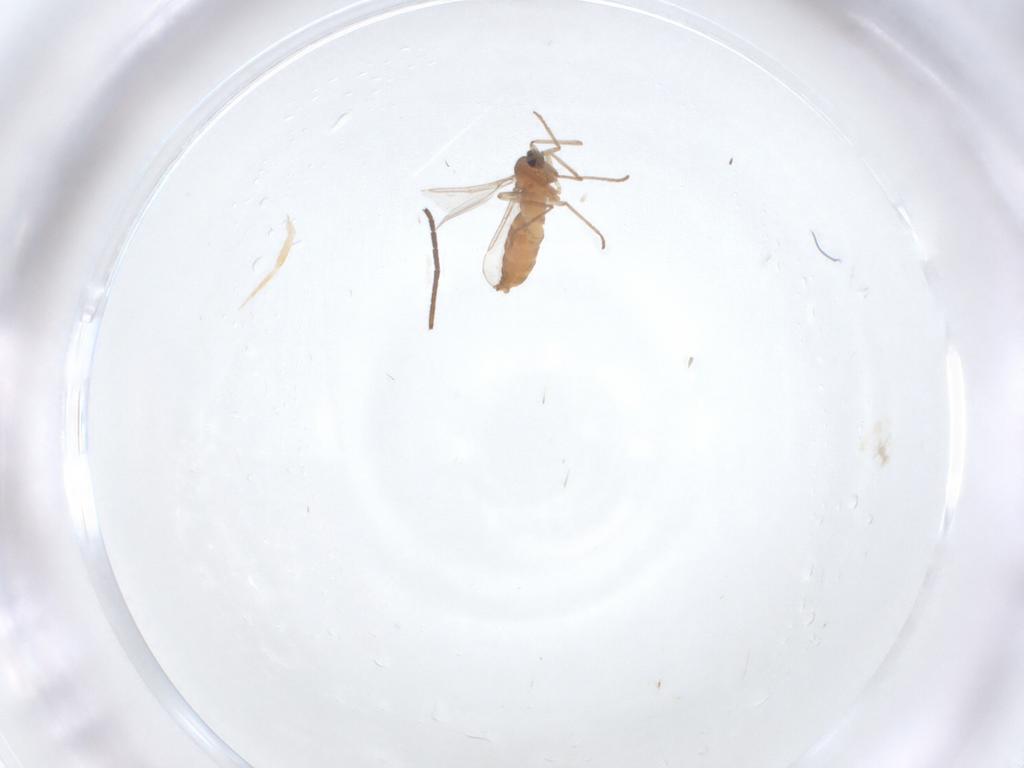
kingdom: Animalia
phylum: Arthropoda
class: Insecta
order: Diptera
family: Cecidomyiidae
